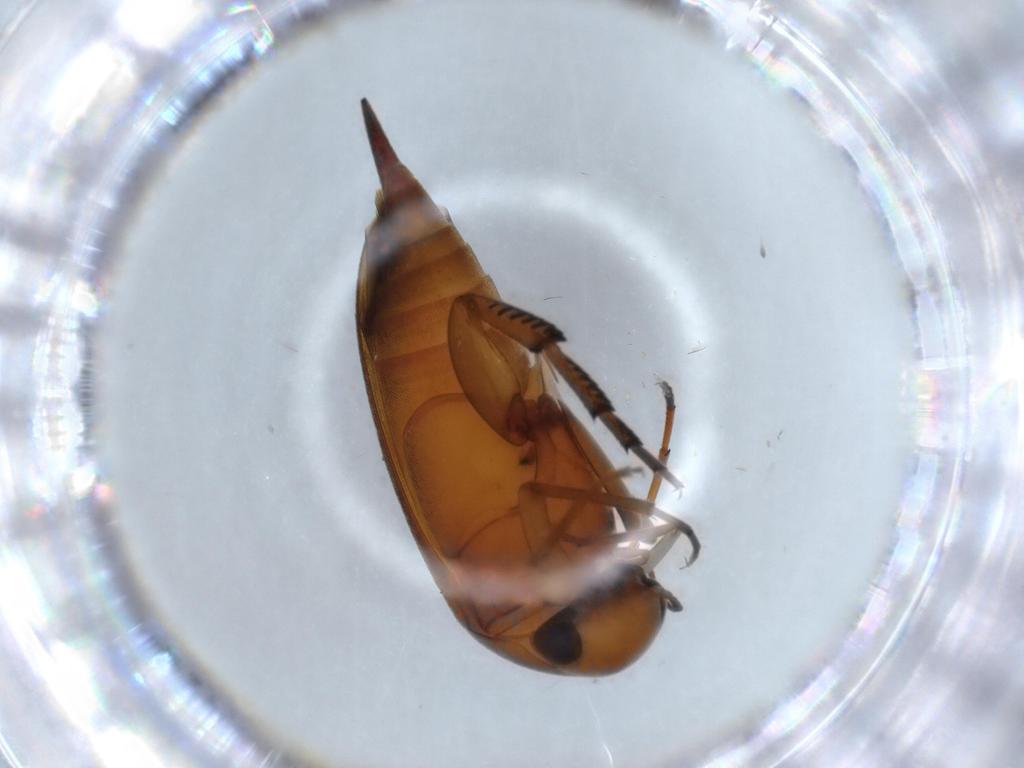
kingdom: Animalia
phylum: Arthropoda
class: Insecta
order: Coleoptera
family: Mordellidae
